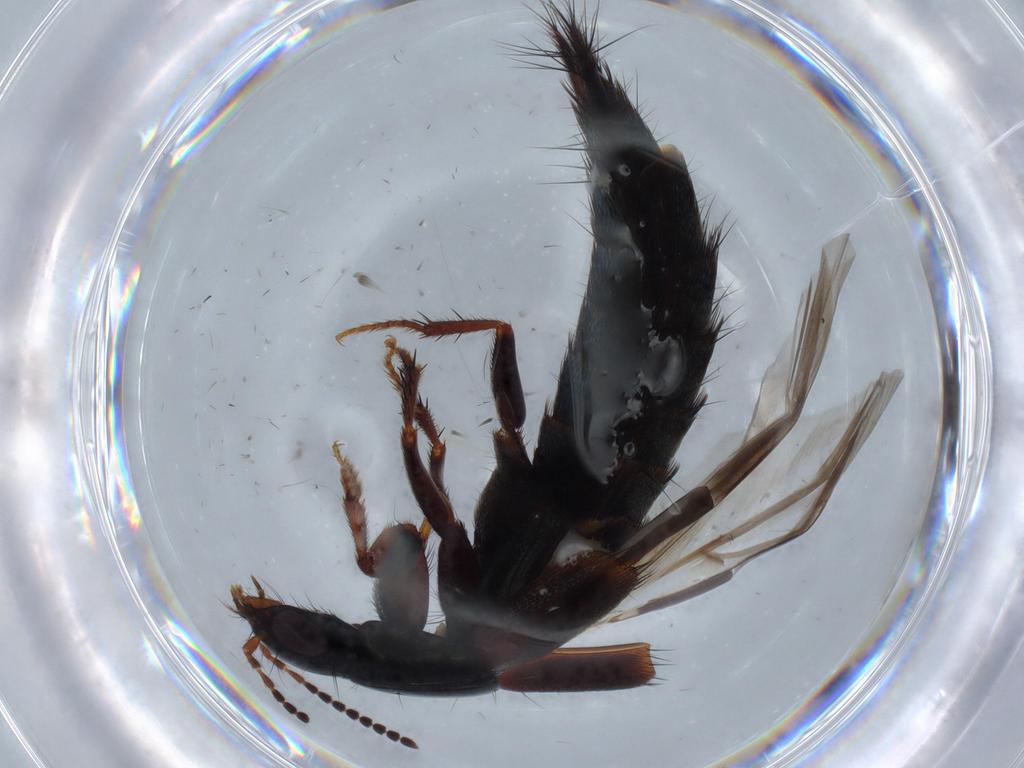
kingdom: Animalia
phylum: Arthropoda
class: Insecta
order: Coleoptera
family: Staphylinidae
